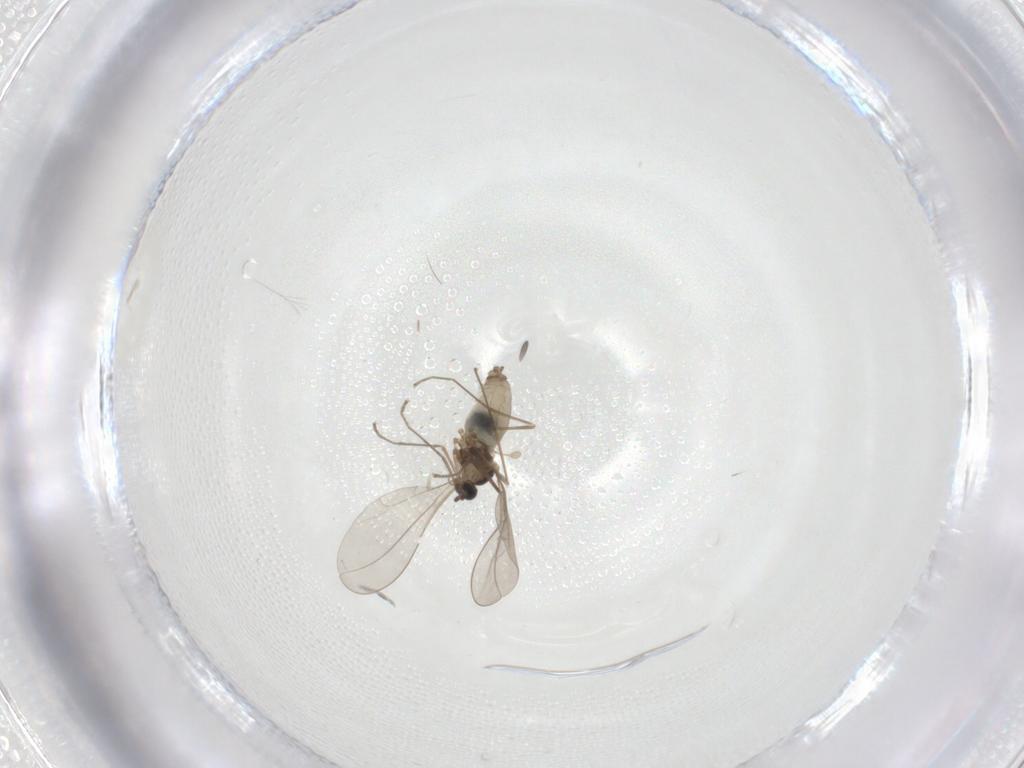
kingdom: Animalia
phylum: Arthropoda
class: Insecta
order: Diptera
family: Cecidomyiidae
